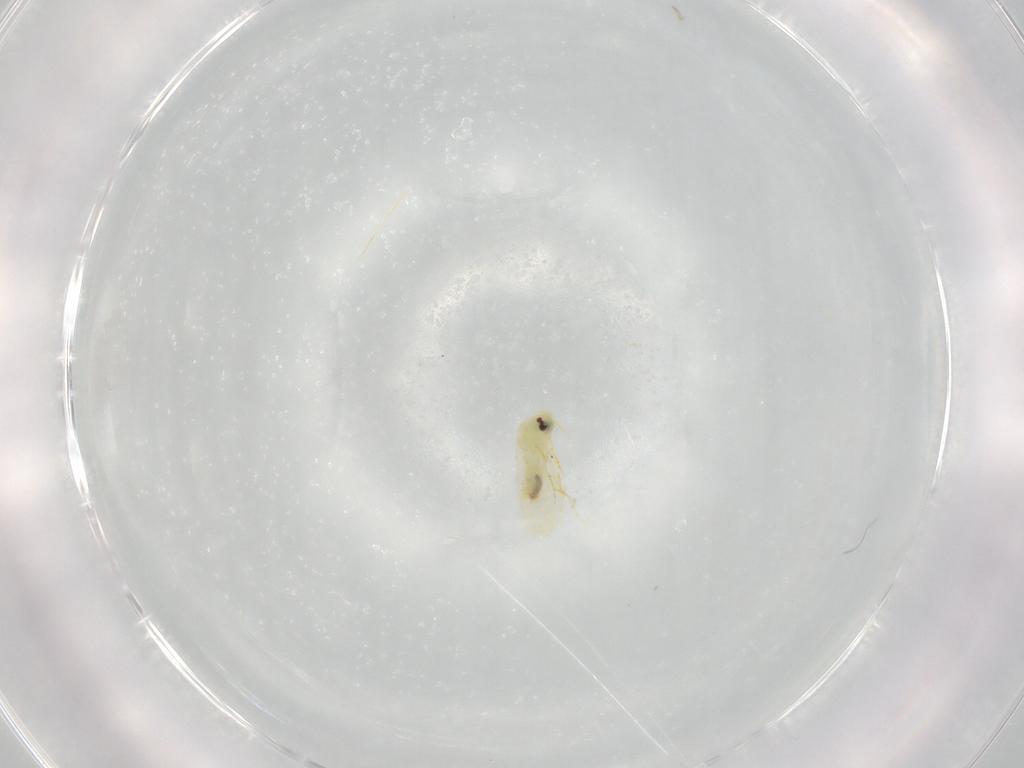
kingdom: Animalia
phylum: Arthropoda
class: Insecta
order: Hemiptera
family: Aleyrodidae
